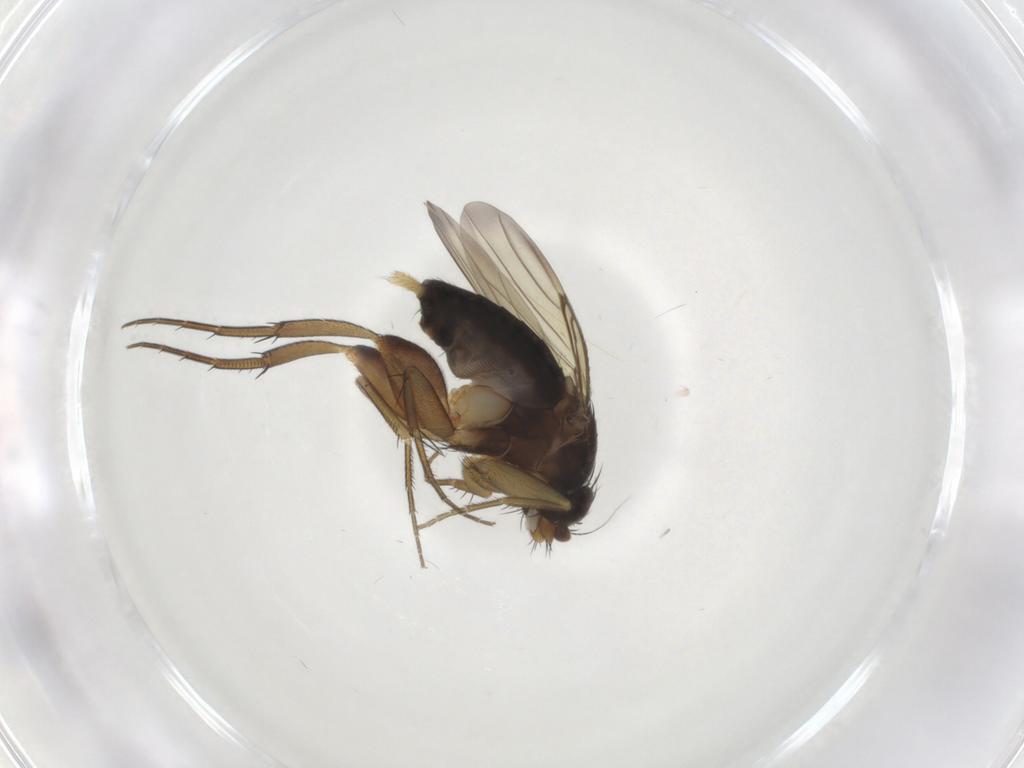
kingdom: Animalia
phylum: Arthropoda
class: Insecta
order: Diptera
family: Phoridae
